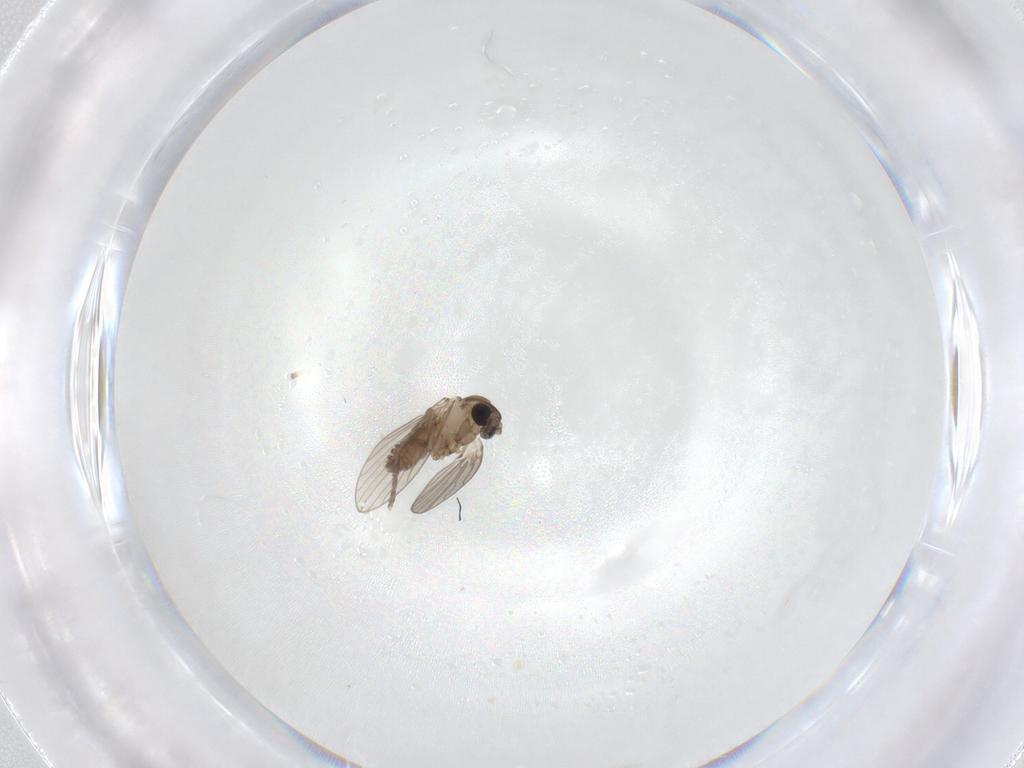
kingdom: Animalia
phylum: Arthropoda
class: Insecta
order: Diptera
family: Psychodidae
